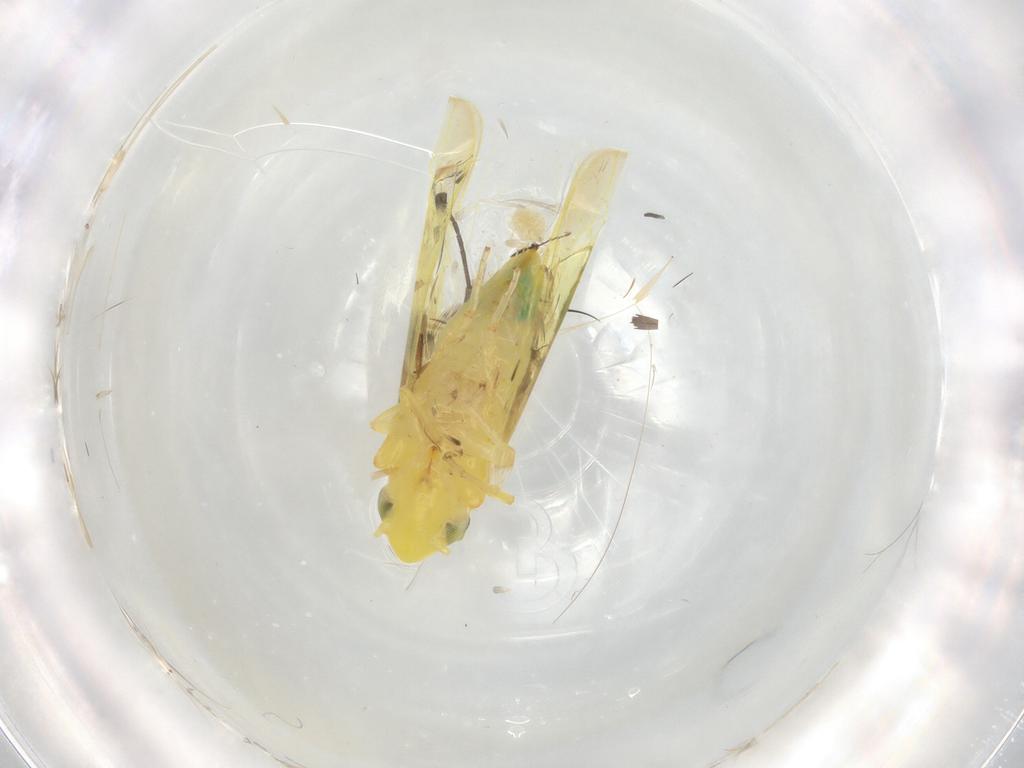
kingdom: Animalia
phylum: Arthropoda
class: Insecta
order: Hemiptera
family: Cicadellidae
